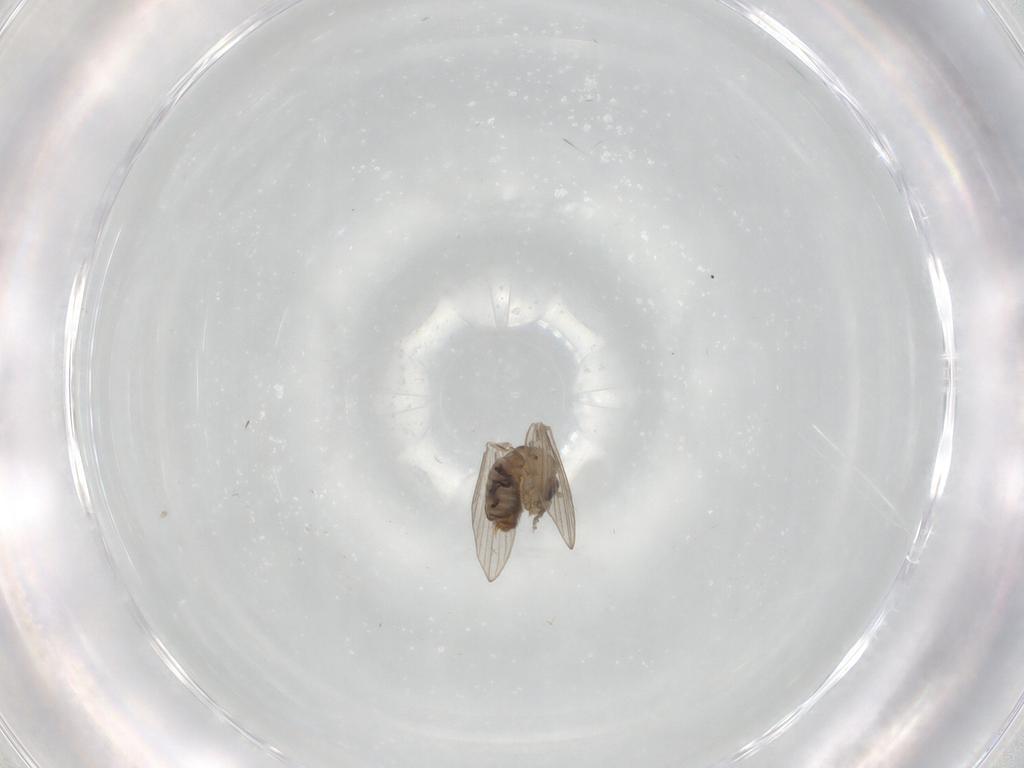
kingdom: Animalia
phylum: Arthropoda
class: Insecta
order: Diptera
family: Psychodidae
